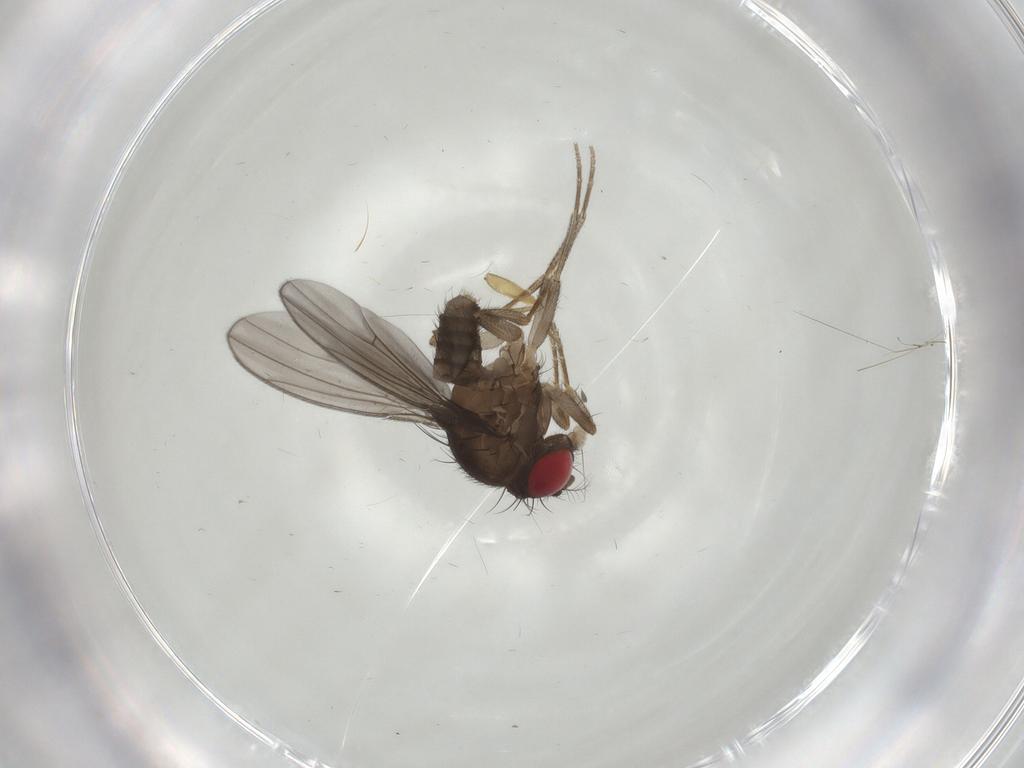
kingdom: Animalia
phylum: Arthropoda
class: Insecta
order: Diptera
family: Drosophilidae
